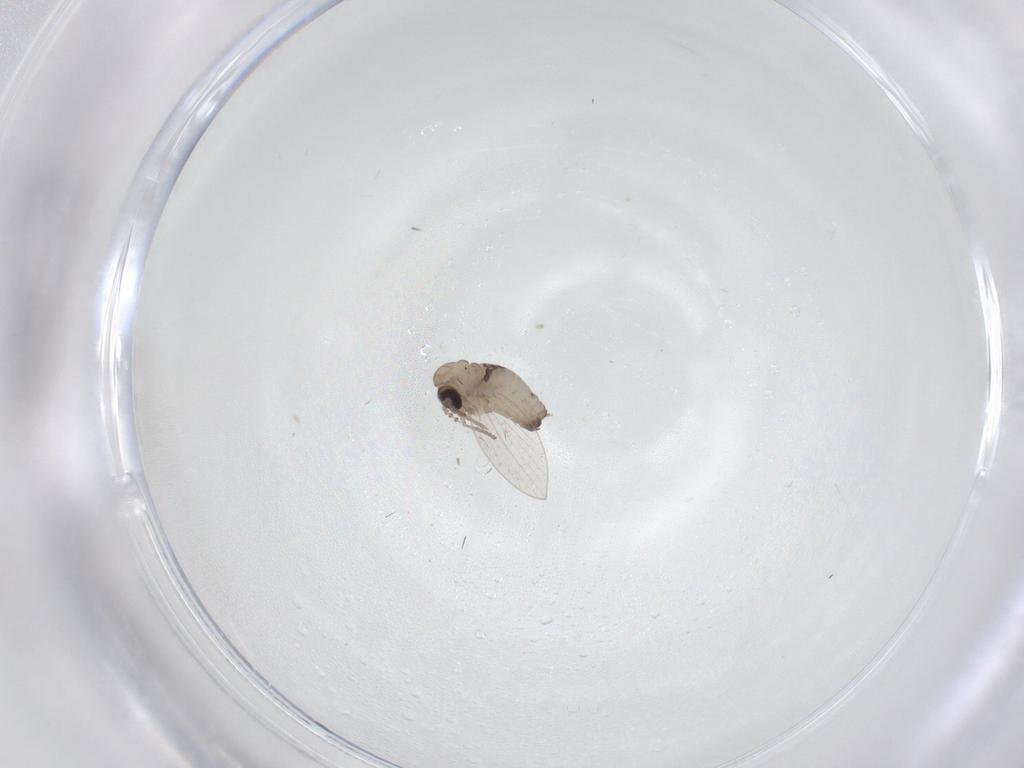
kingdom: Animalia
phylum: Arthropoda
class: Insecta
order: Diptera
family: Psychodidae
